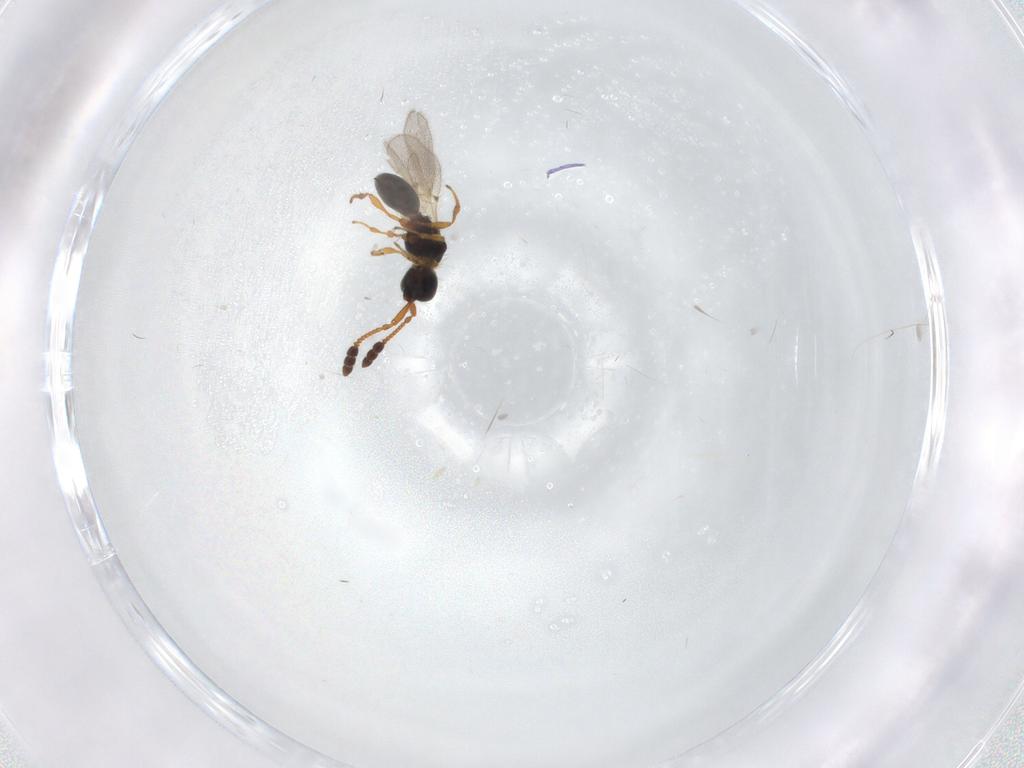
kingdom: Animalia
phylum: Arthropoda
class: Insecta
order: Hymenoptera
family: Diapriidae
